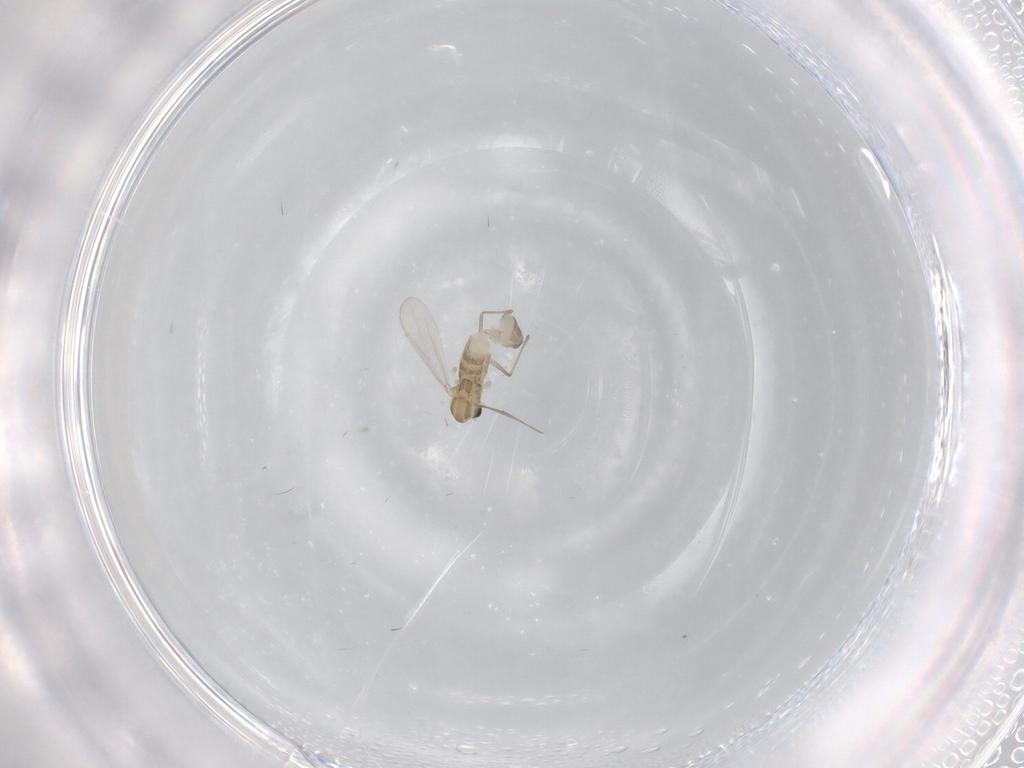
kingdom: Animalia
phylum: Arthropoda
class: Insecta
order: Diptera
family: Chironomidae
